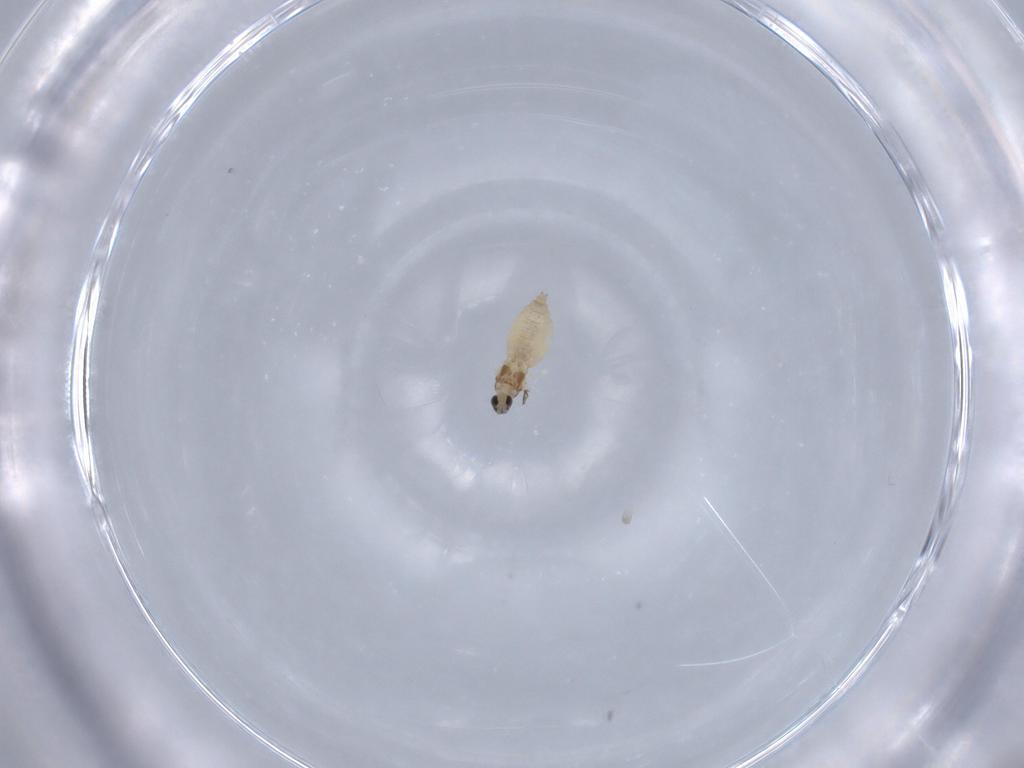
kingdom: Animalia
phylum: Arthropoda
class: Insecta
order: Diptera
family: Cecidomyiidae
